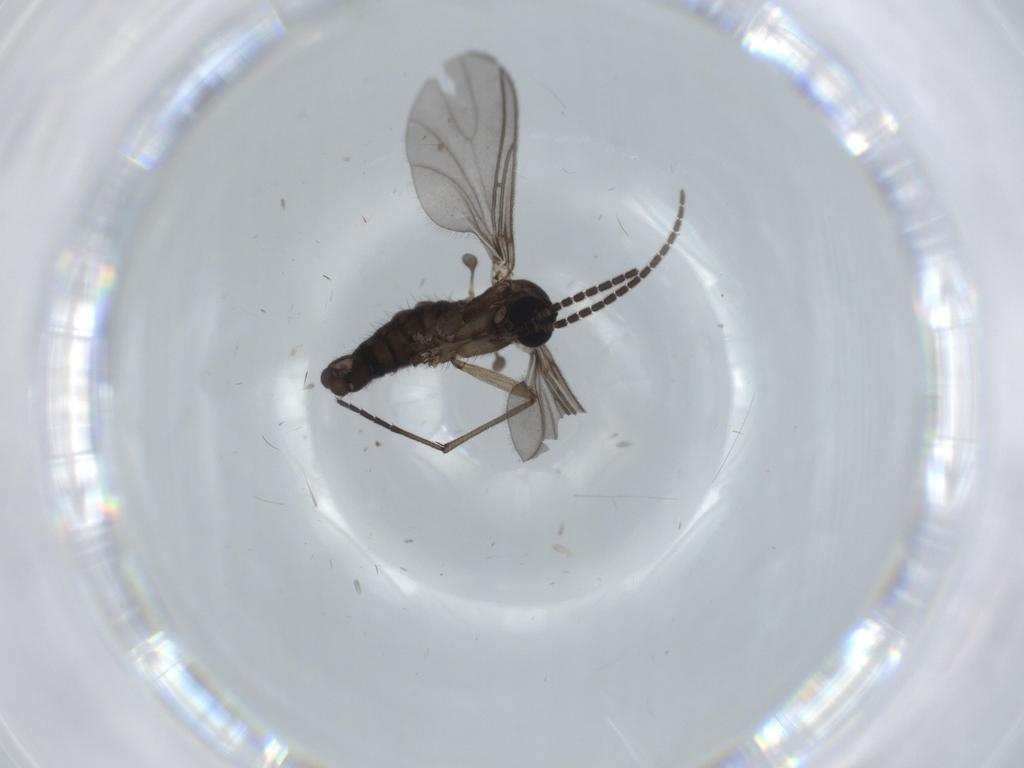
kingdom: Animalia
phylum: Arthropoda
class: Insecta
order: Diptera
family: Sciaridae
